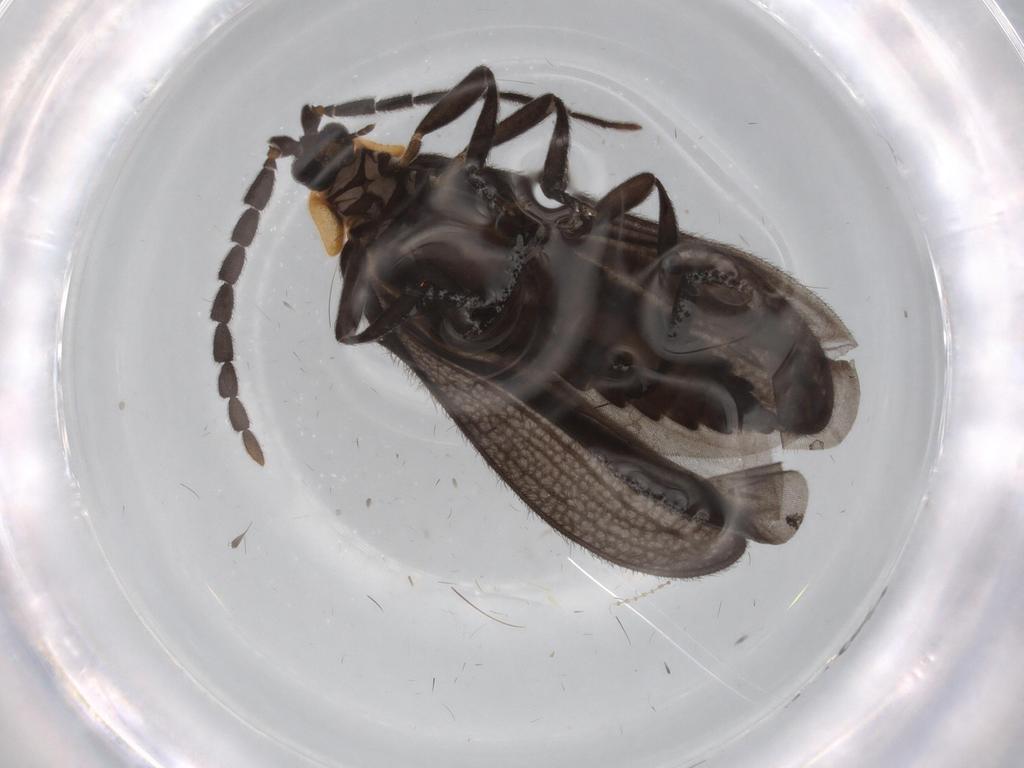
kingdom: Animalia
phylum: Arthropoda
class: Insecta
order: Coleoptera
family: Lycidae
